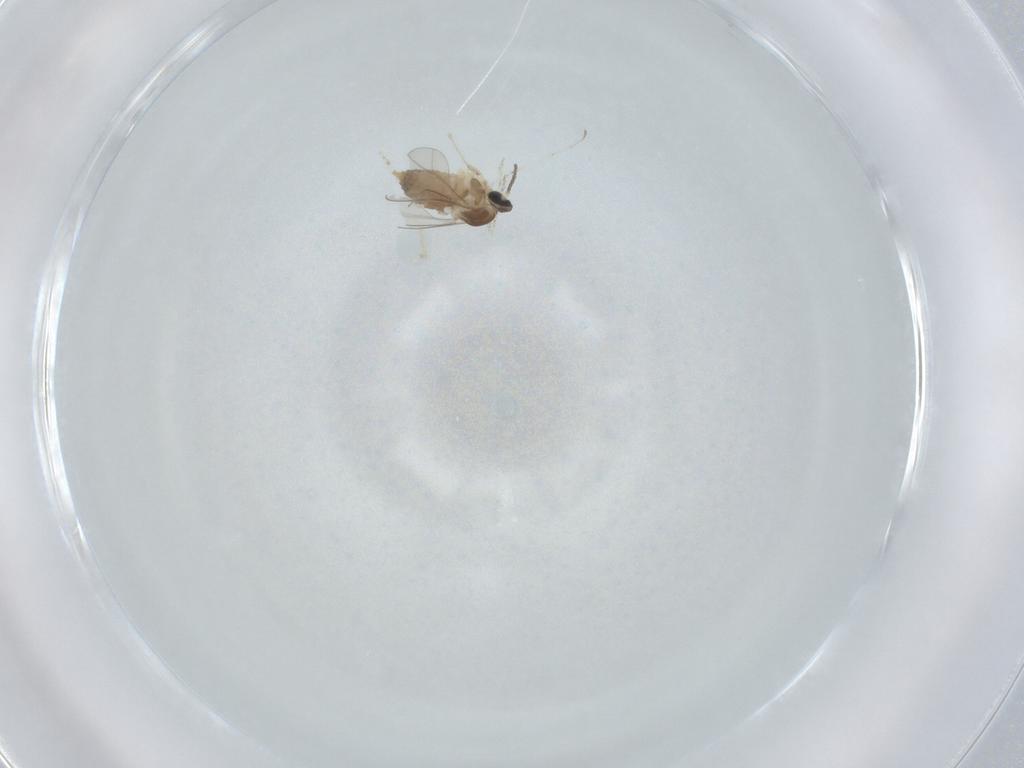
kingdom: Animalia
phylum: Arthropoda
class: Insecta
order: Diptera
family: Cecidomyiidae
